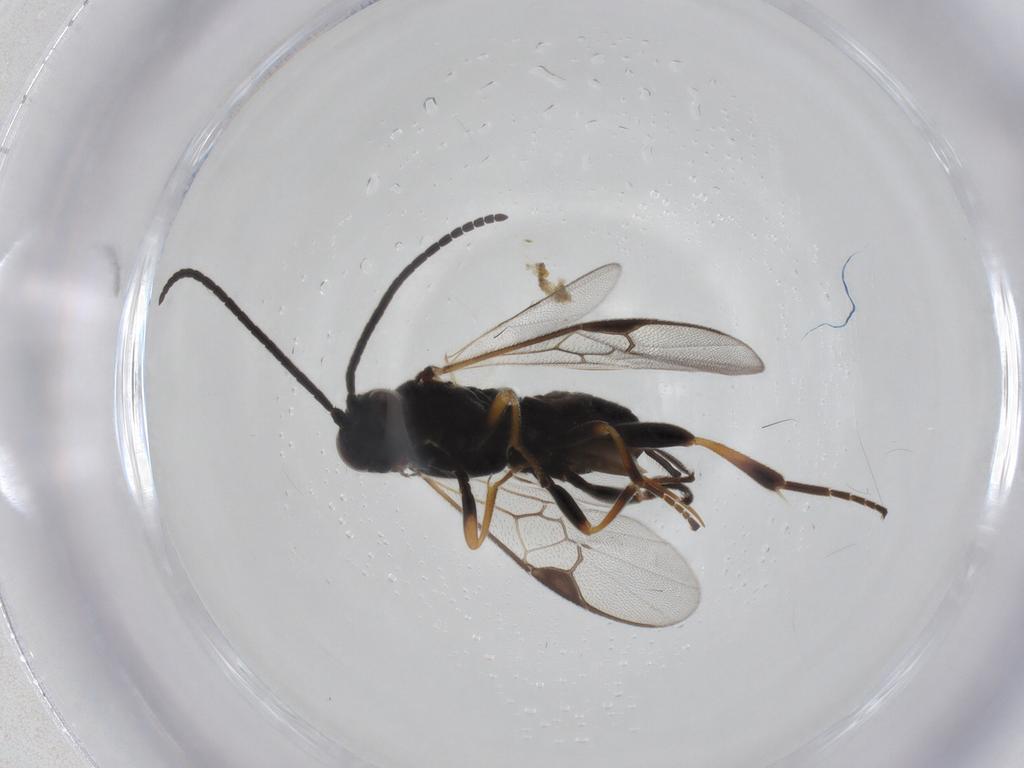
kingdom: Animalia
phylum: Arthropoda
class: Insecta
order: Hymenoptera
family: Braconidae
